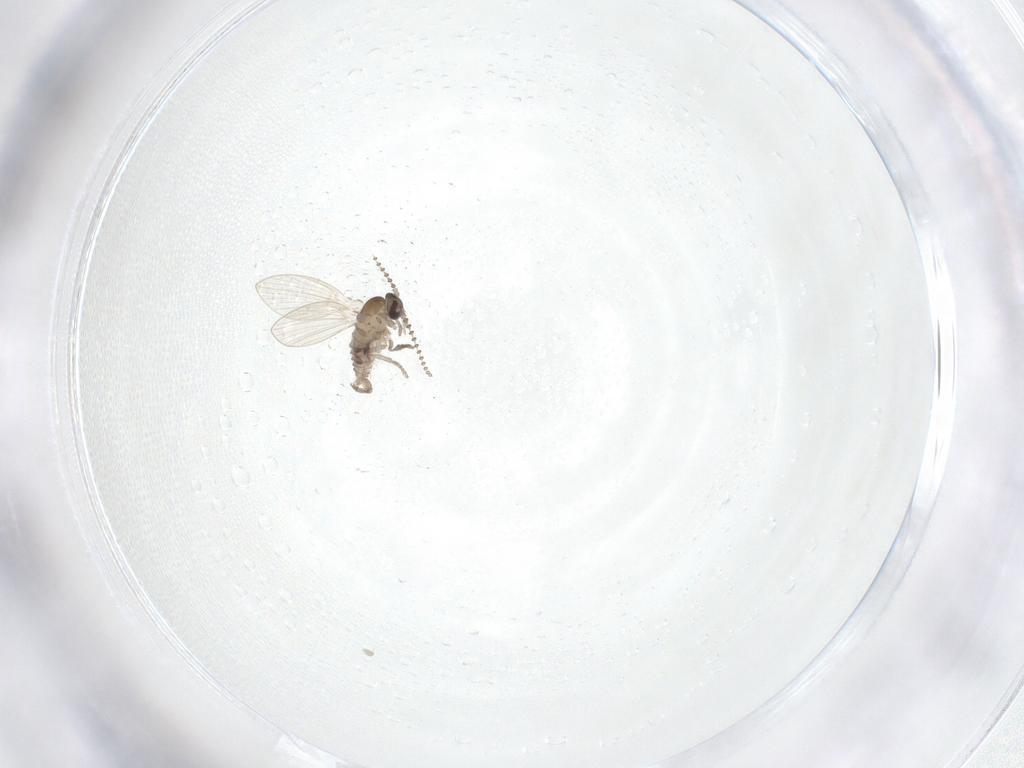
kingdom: Animalia
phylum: Arthropoda
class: Insecta
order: Diptera
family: Psychodidae
